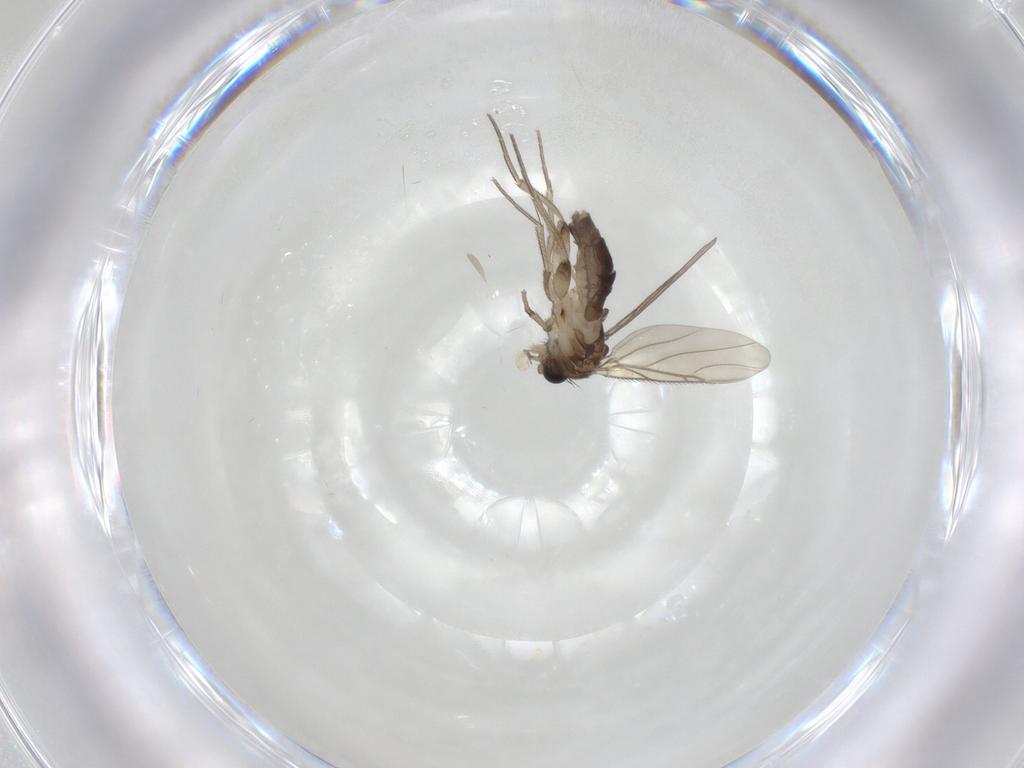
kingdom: Animalia
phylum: Arthropoda
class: Insecta
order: Diptera
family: Phoridae
